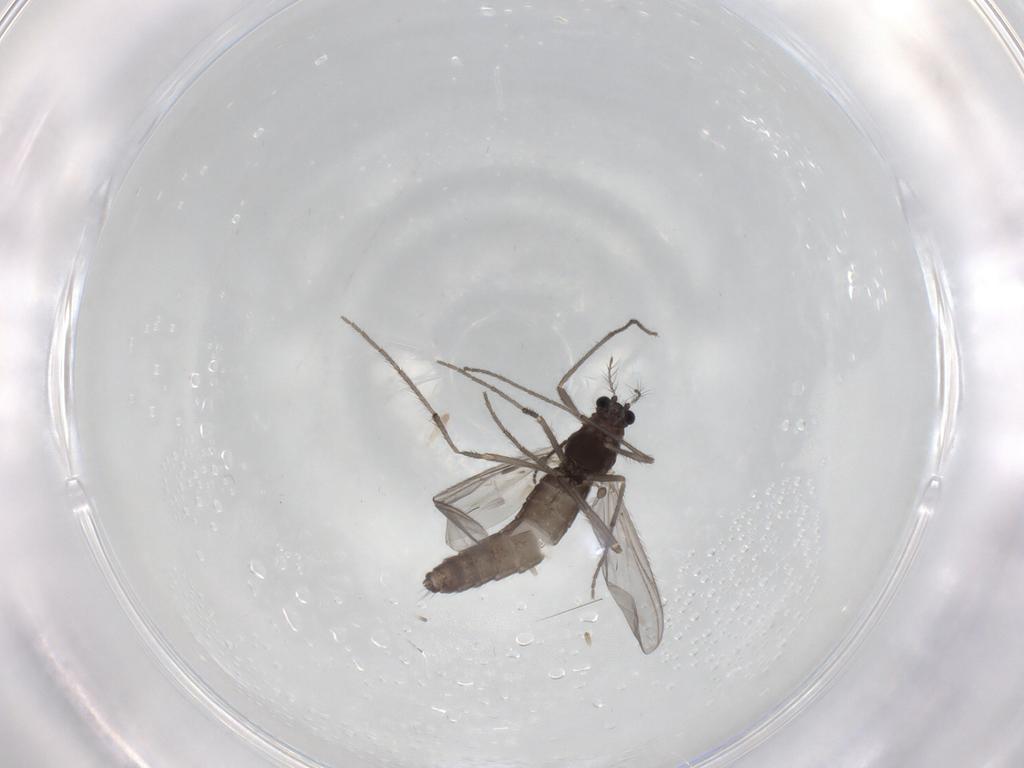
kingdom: Animalia
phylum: Arthropoda
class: Insecta
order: Diptera
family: Chironomidae
